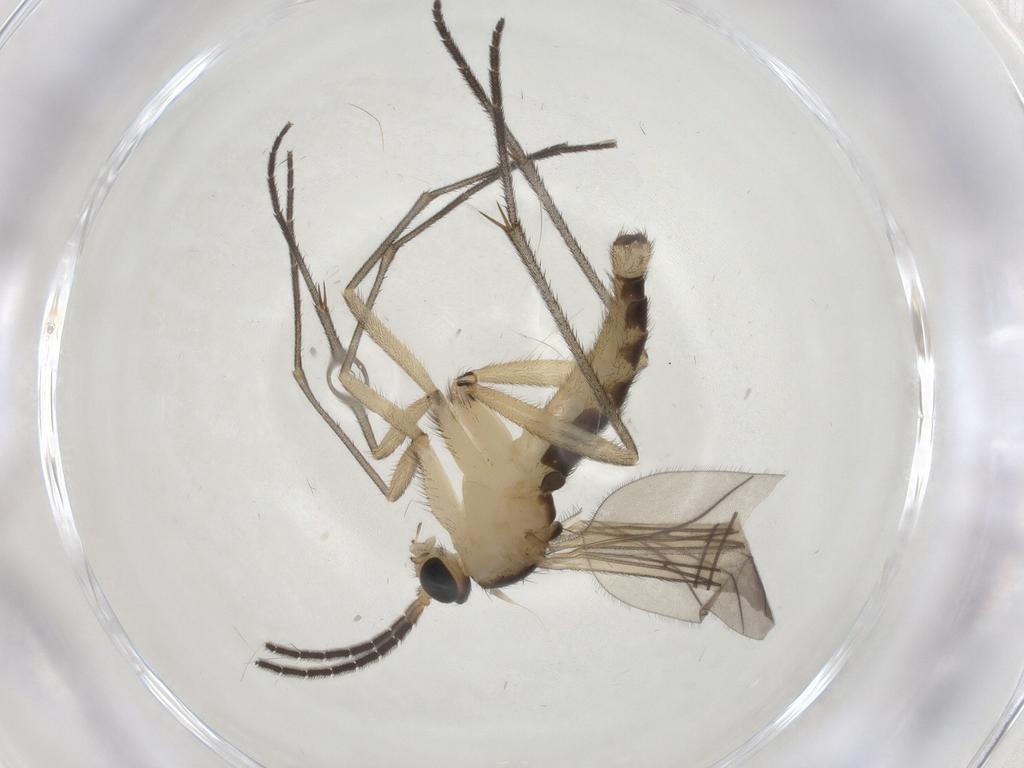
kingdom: Animalia
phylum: Arthropoda
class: Insecta
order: Diptera
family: Sciaridae
